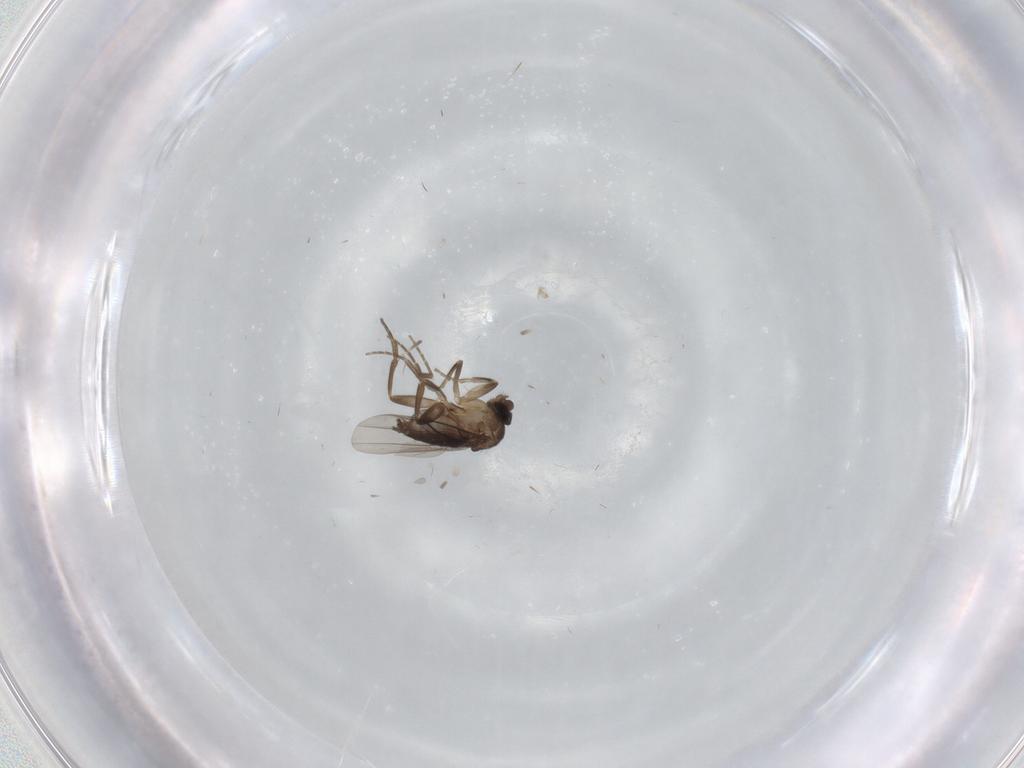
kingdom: Animalia
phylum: Arthropoda
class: Insecta
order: Diptera
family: Phoridae
